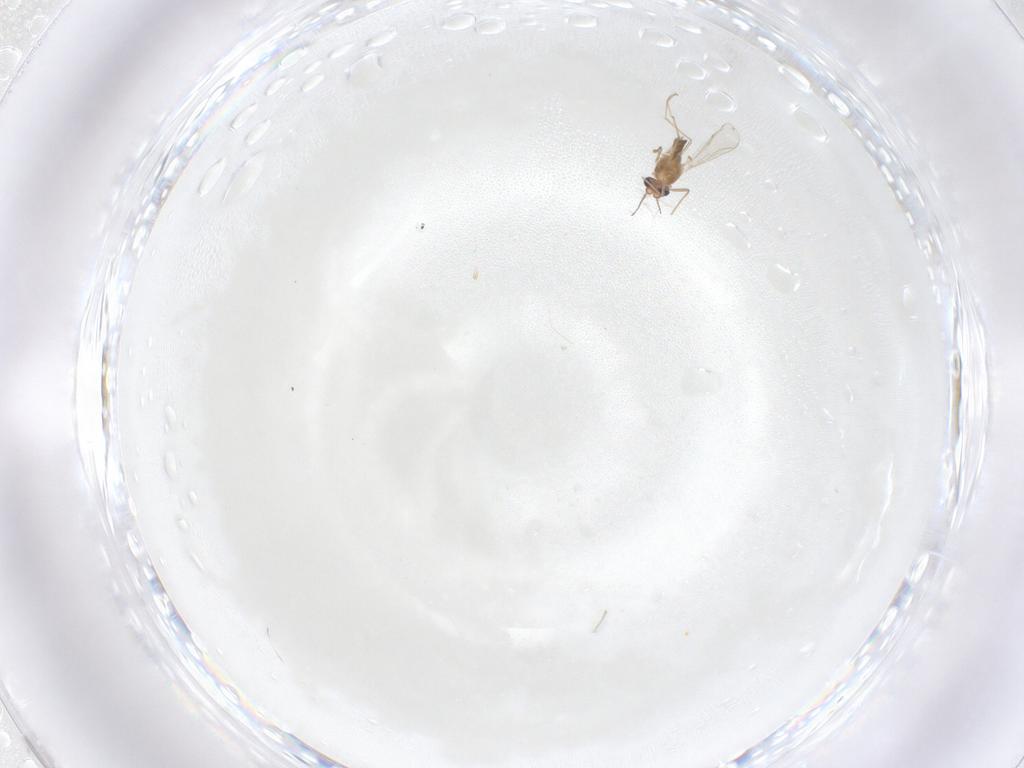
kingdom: Animalia
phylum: Arthropoda
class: Insecta
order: Diptera
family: Chironomidae
